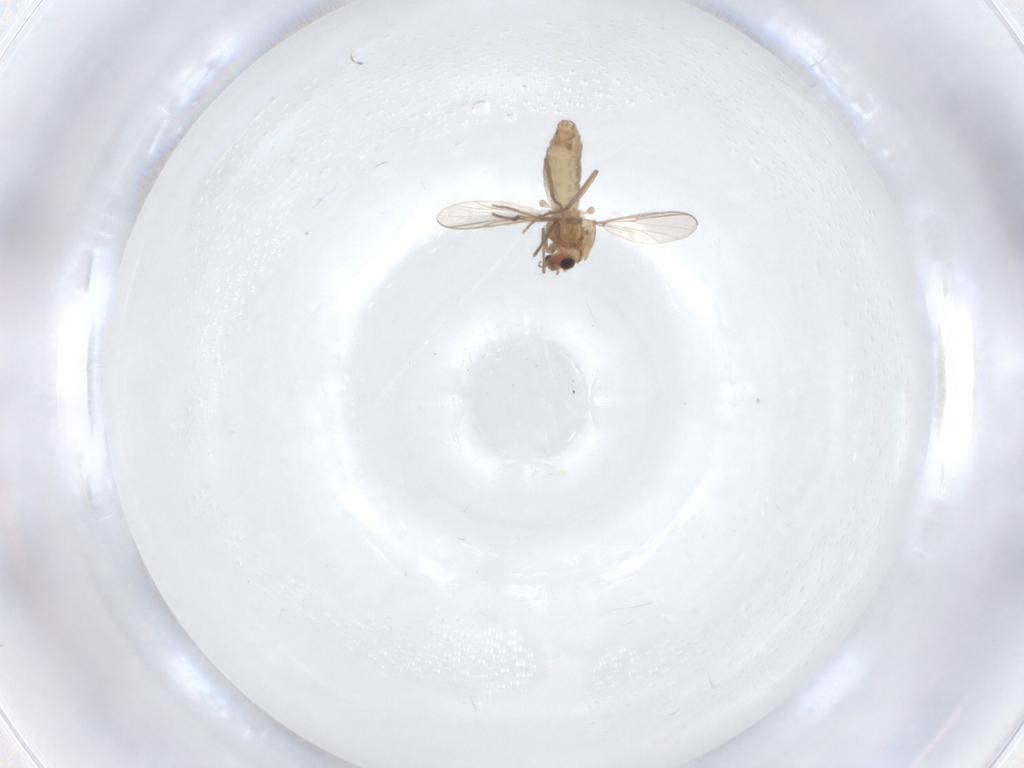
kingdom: Animalia
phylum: Arthropoda
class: Insecta
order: Diptera
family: Chironomidae
